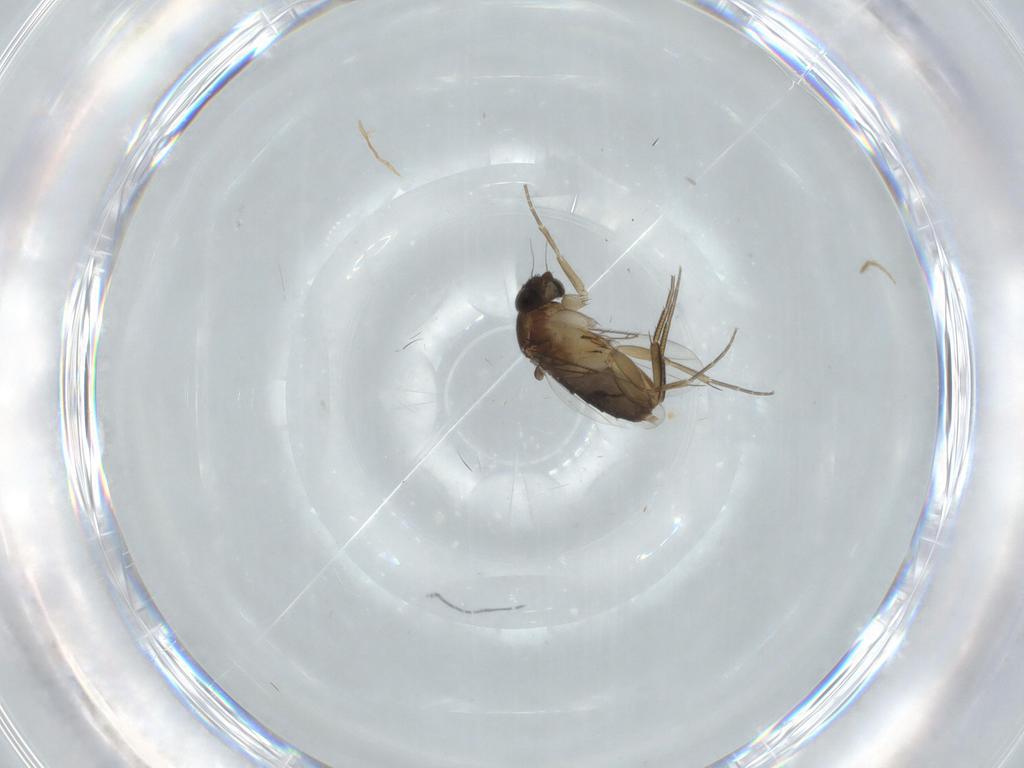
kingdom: Animalia
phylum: Arthropoda
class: Insecta
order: Diptera
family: Phoridae
